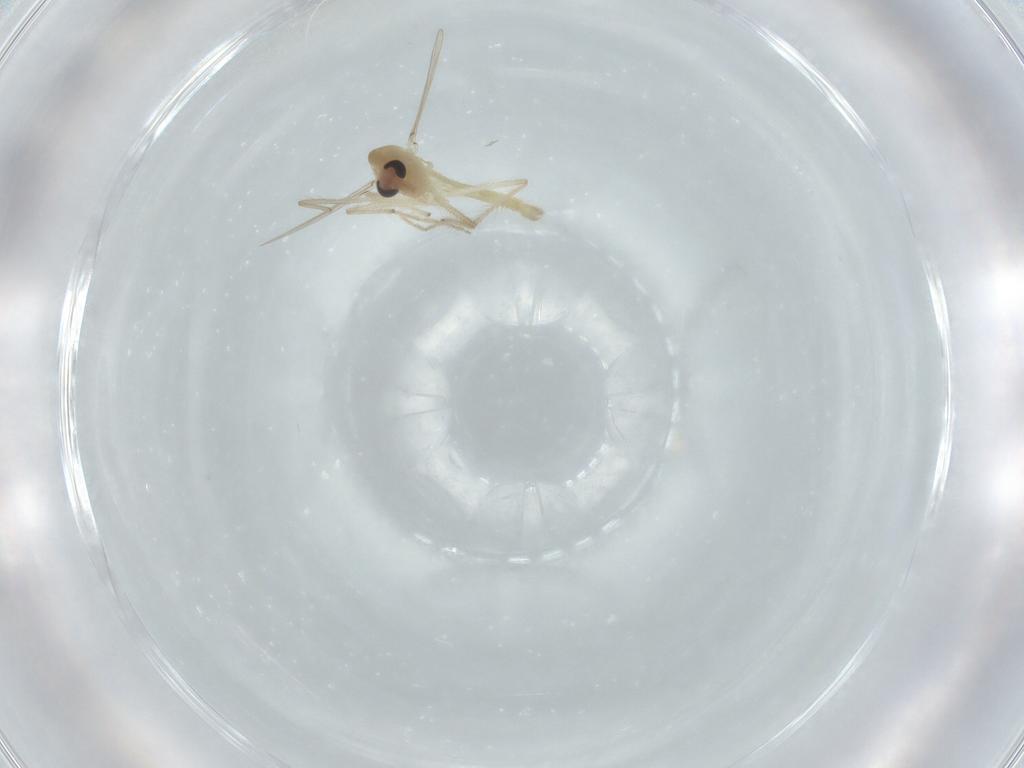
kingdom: Animalia
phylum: Arthropoda
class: Insecta
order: Diptera
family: Chironomidae
